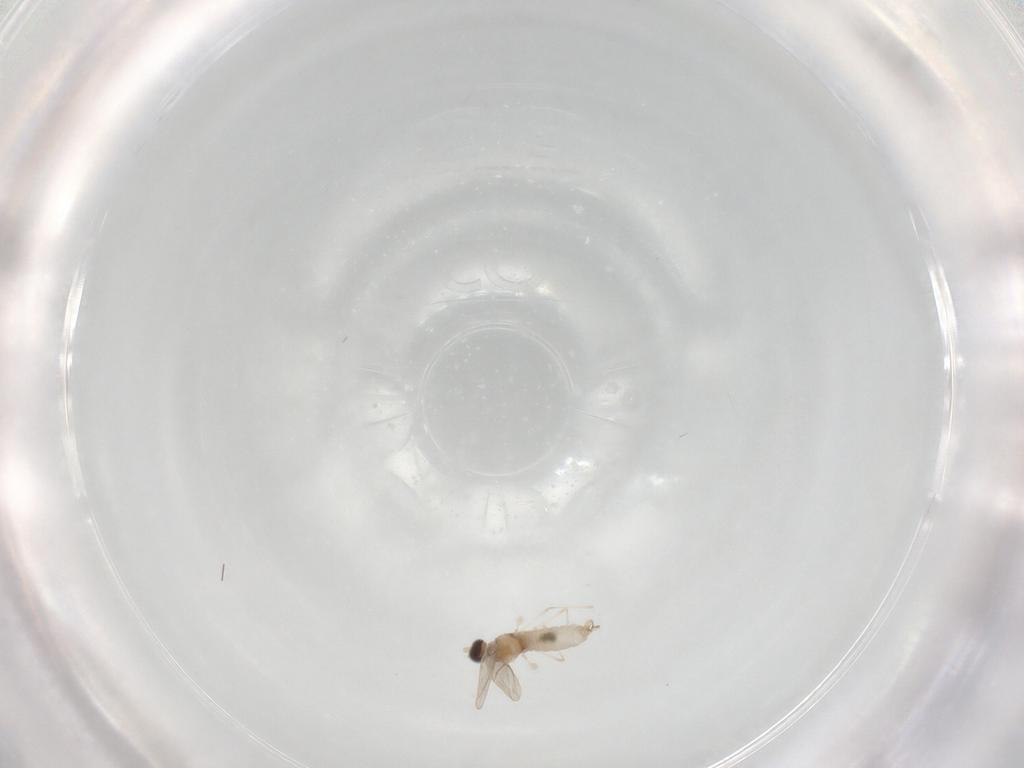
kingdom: Animalia
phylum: Arthropoda
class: Insecta
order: Diptera
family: Cecidomyiidae
